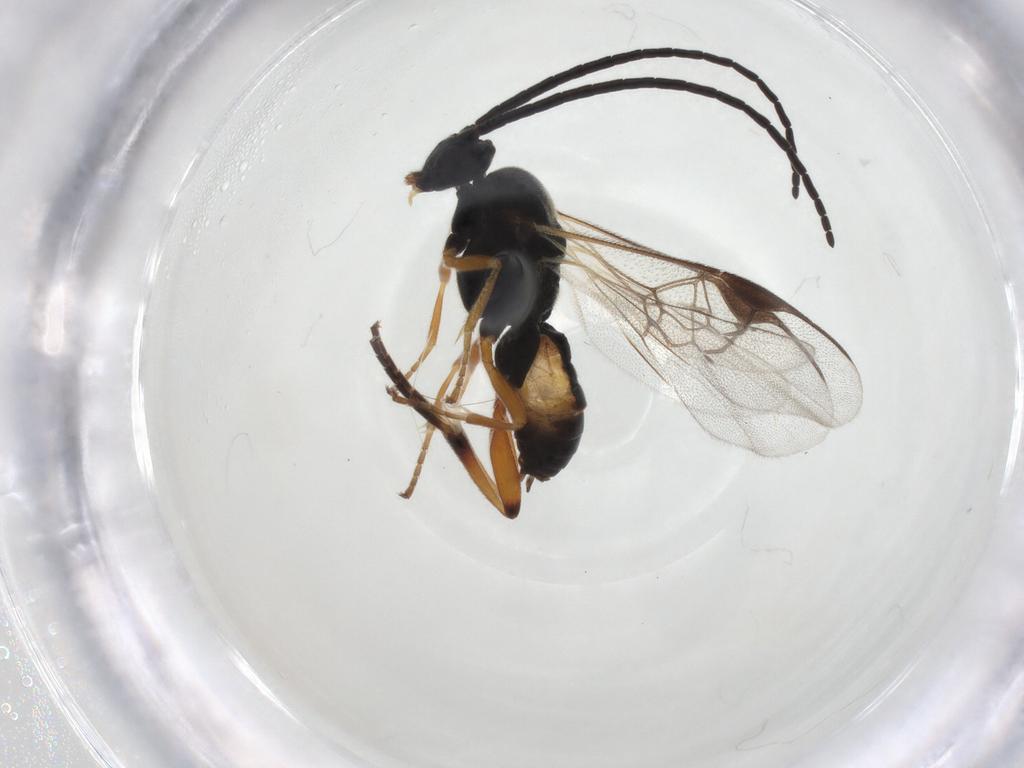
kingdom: Animalia
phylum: Arthropoda
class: Insecta
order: Hymenoptera
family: Braconidae
